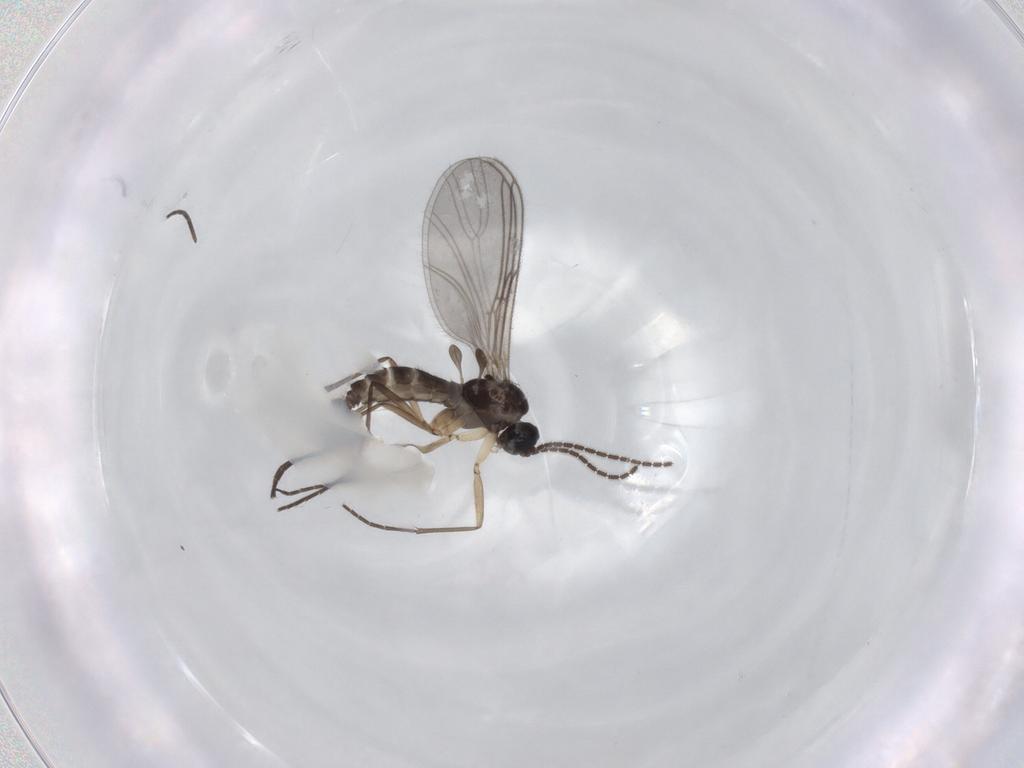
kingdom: Animalia
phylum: Arthropoda
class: Insecta
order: Diptera
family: Sciaridae
